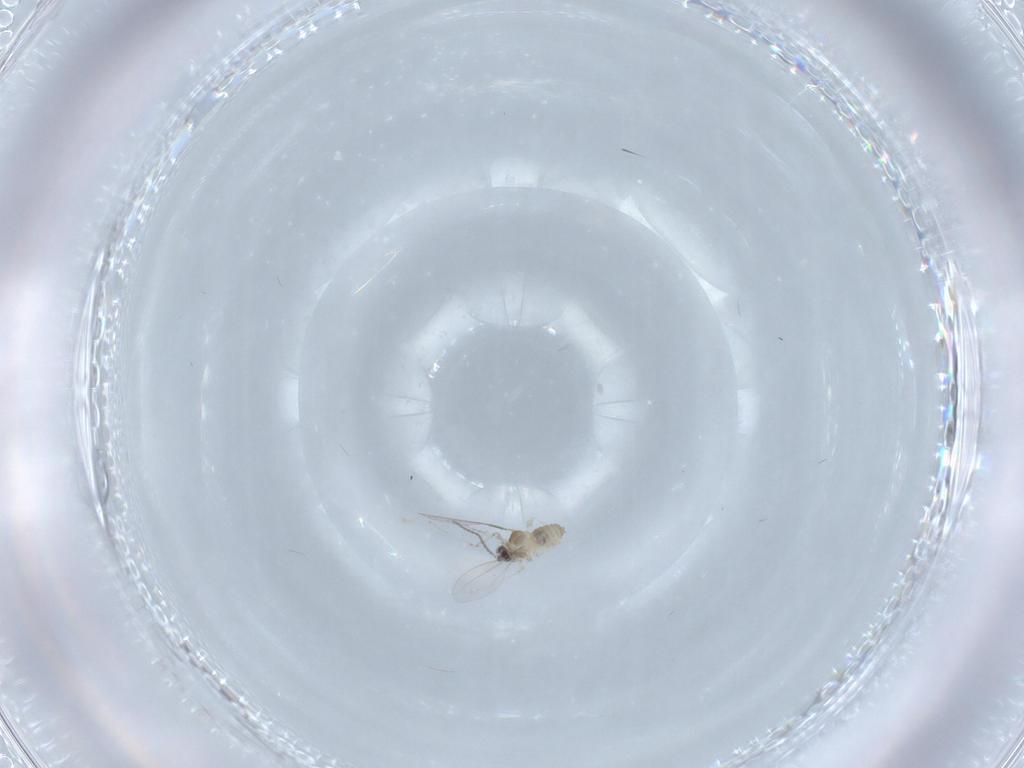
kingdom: Animalia
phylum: Arthropoda
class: Insecta
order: Diptera
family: Cecidomyiidae
